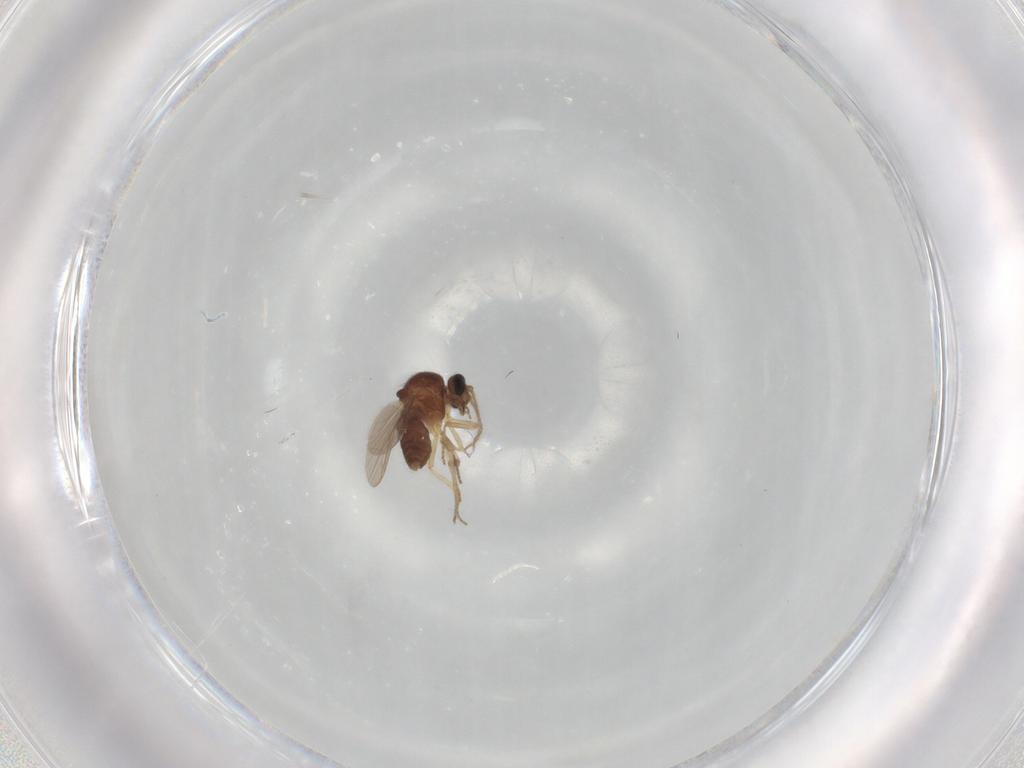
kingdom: Animalia
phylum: Arthropoda
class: Insecta
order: Diptera
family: Ceratopogonidae
